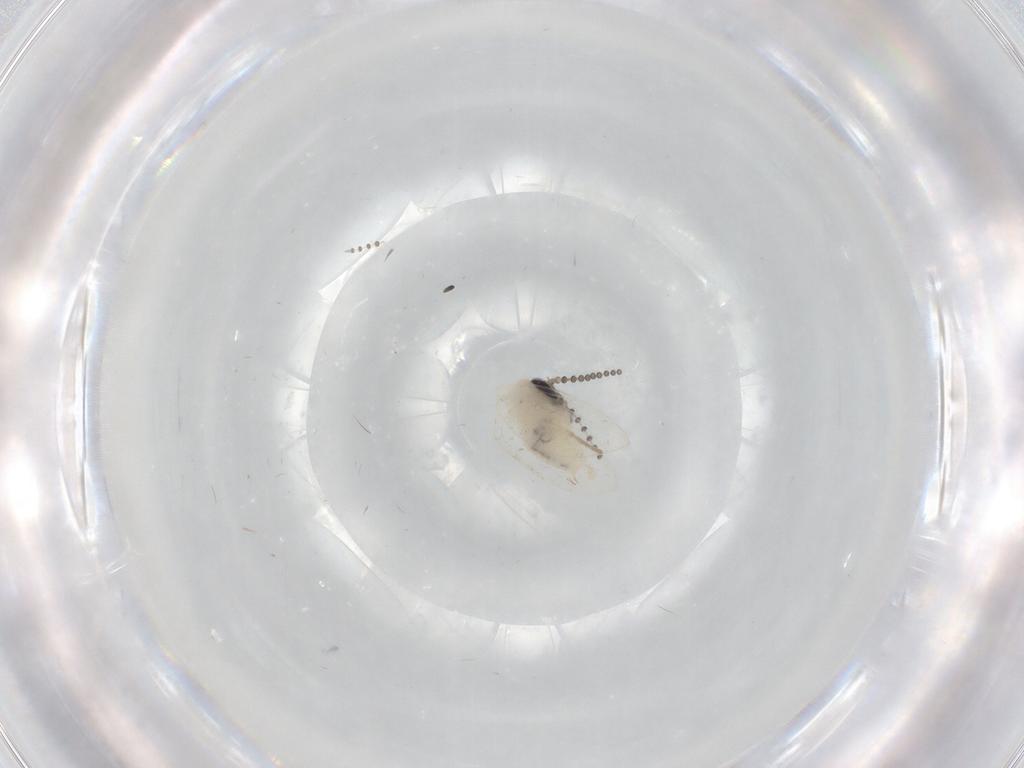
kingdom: Animalia
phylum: Arthropoda
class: Insecta
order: Diptera
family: Psychodidae
